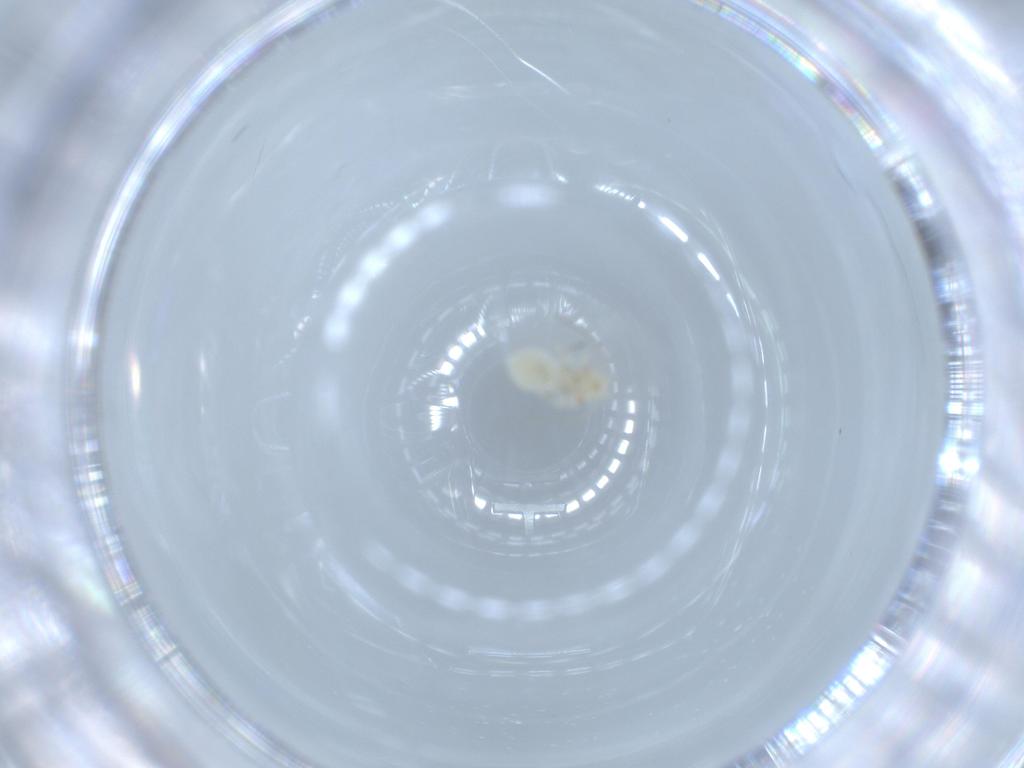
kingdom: Animalia
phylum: Arthropoda
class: Insecta
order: Psocodea
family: Caeciliusidae
